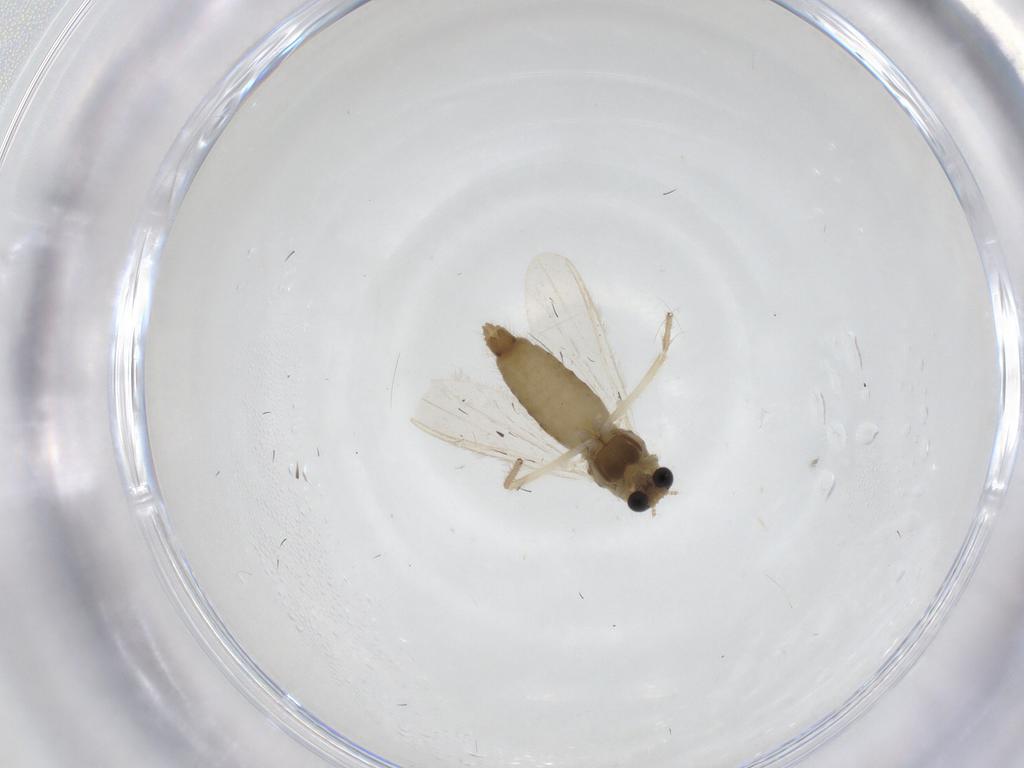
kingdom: Animalia
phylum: Arthropoda
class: Insecta
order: Diptera
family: Chironomidae
